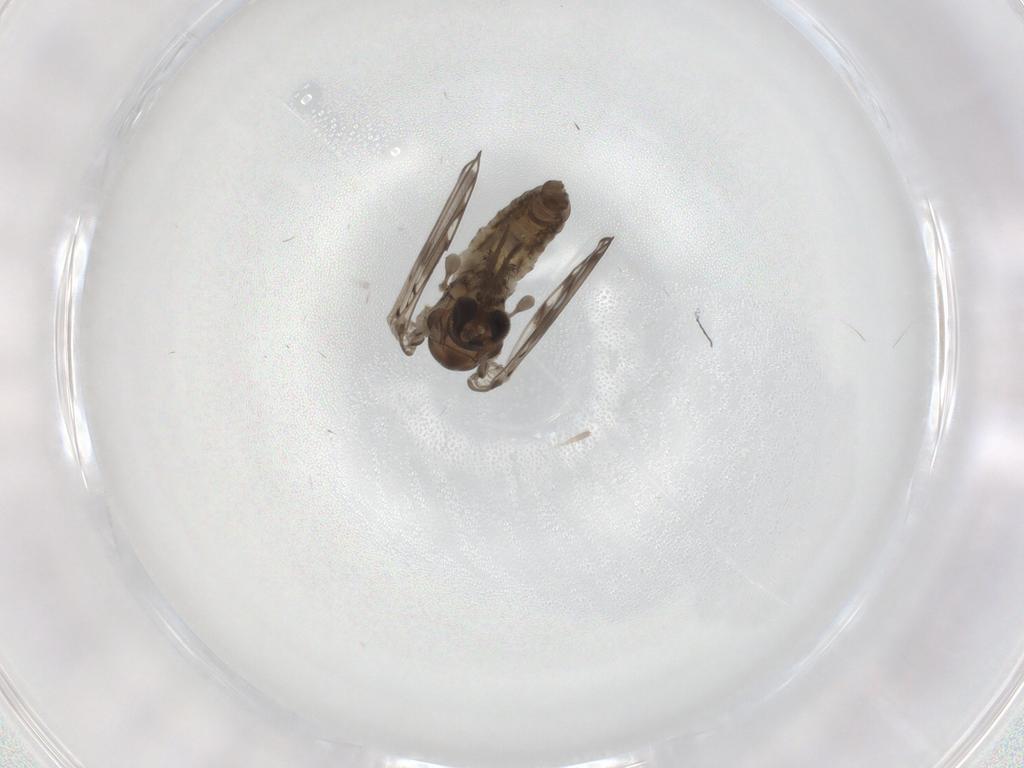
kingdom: Animalia
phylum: Arthropoda
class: Insecta
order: Diptera
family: Psychodidae
